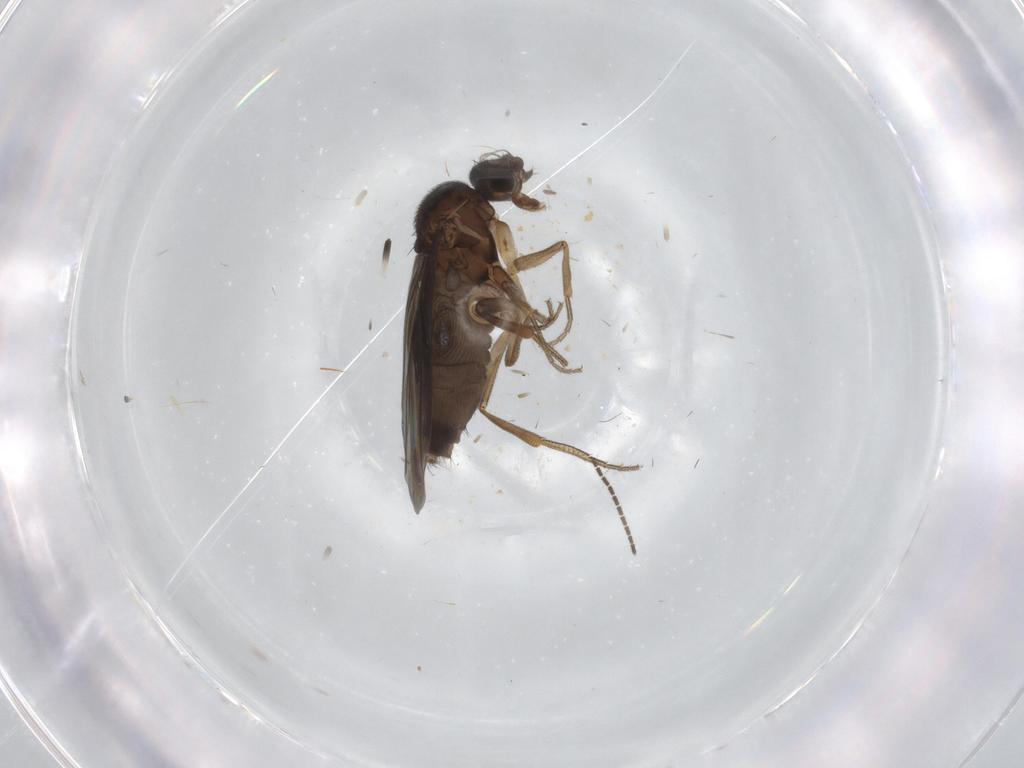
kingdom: Animalia
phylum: Arthropoda
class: Insecta
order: Diptera
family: Phoridae
